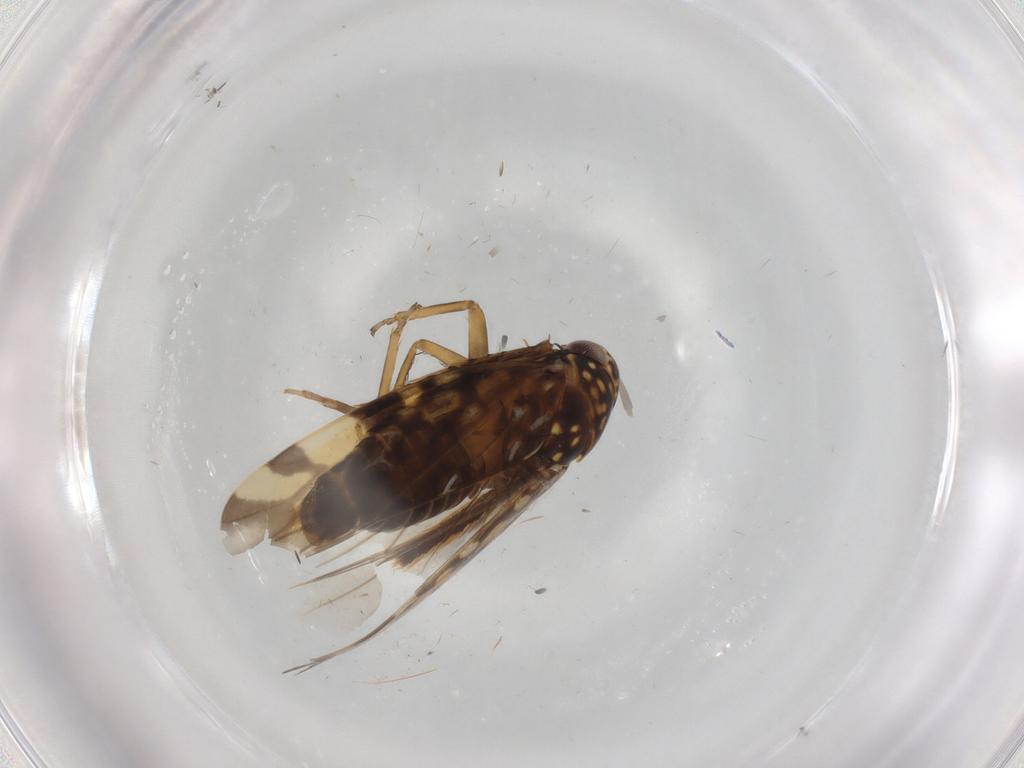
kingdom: Animalia
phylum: Arthropoda
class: Insecta
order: Hemiptera
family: Cicadellidae
